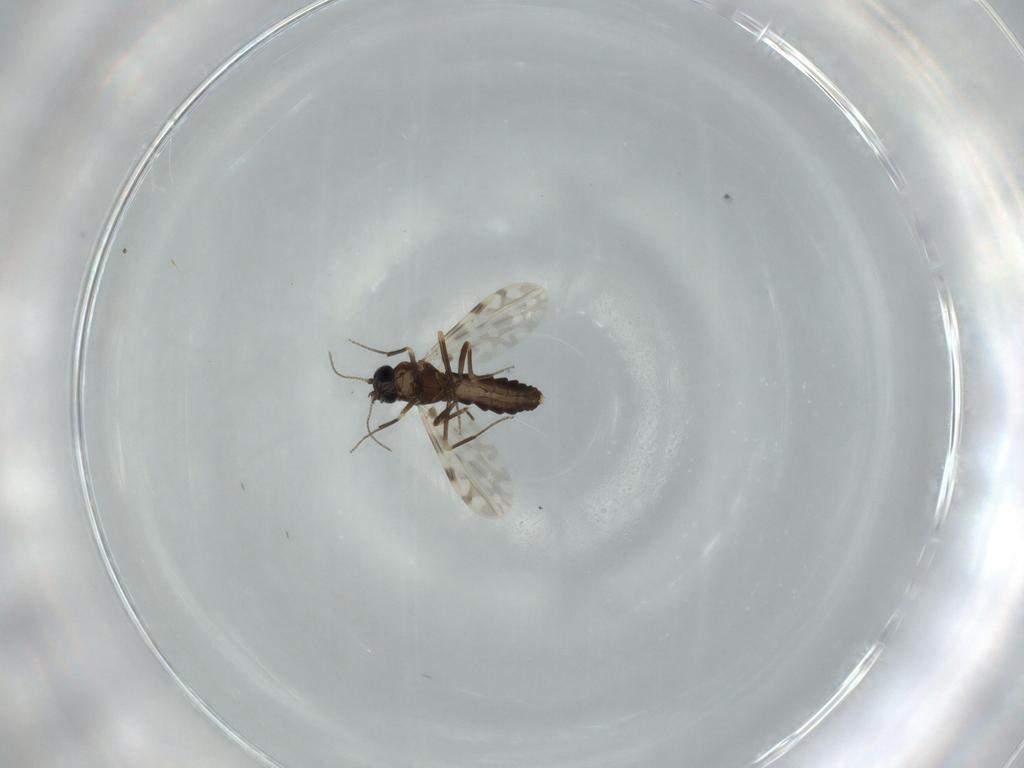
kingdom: Animalia
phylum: Arthropoda
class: Insecta
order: Diptera
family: Ceratopogonidae
